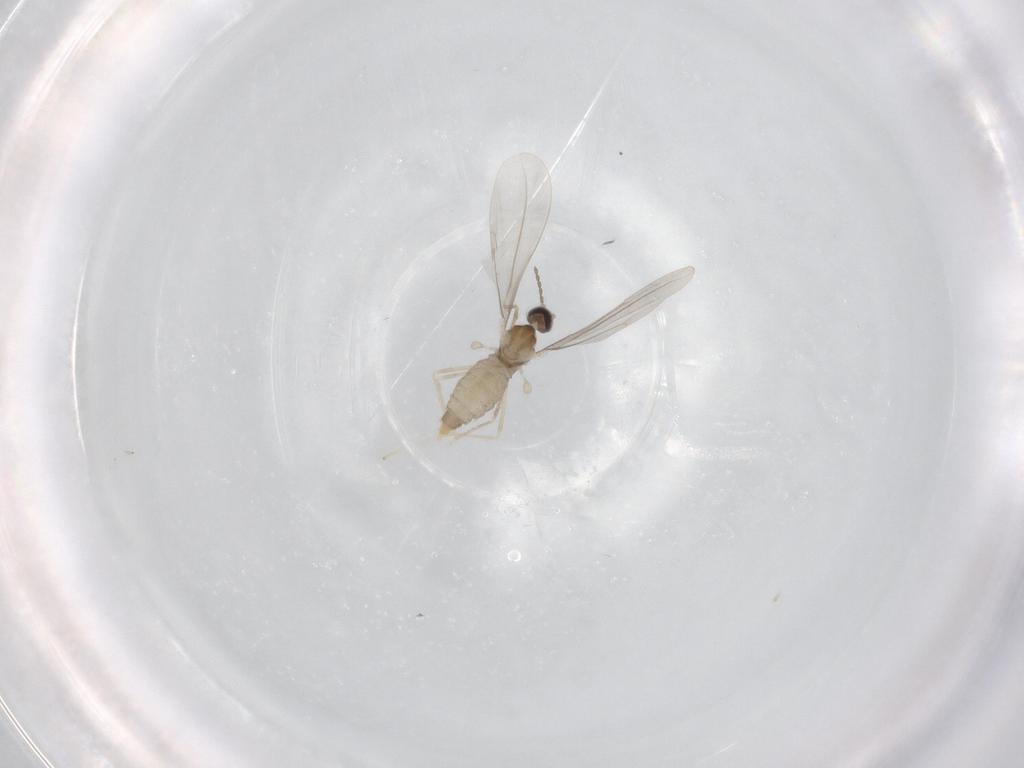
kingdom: Animalia
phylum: Arthropoda
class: Insecta
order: Diptera
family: Cecidomyiidae
